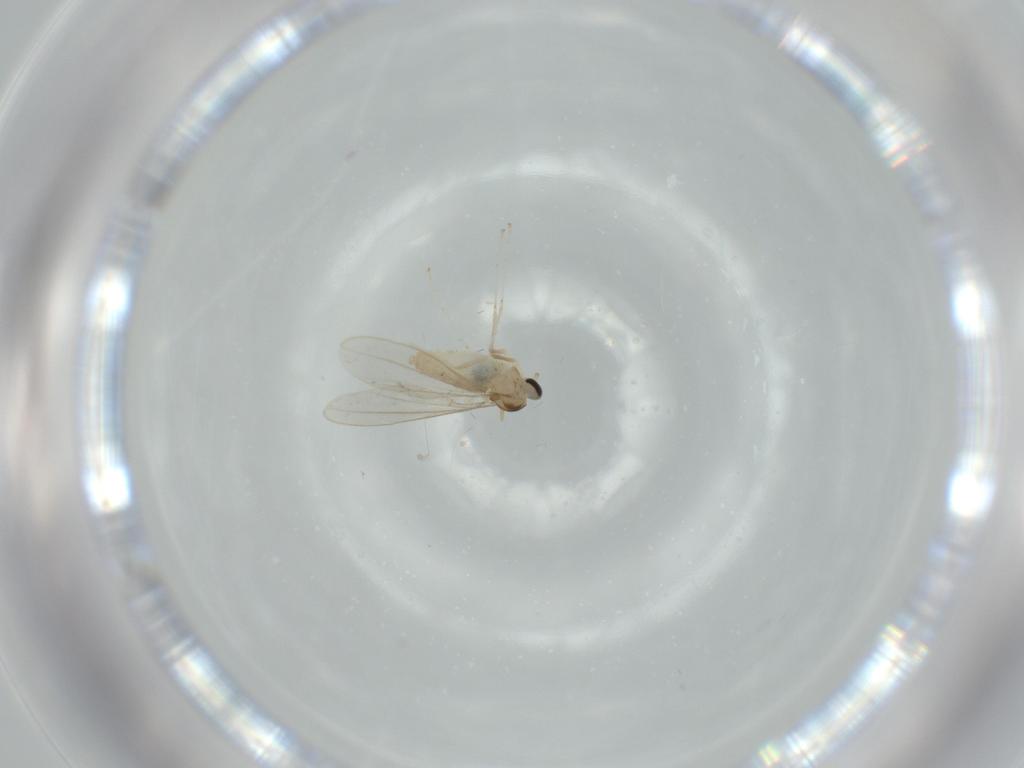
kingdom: Animalia
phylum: Arthropoda
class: Insecta
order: Diptera
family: Cecidomyiidae
